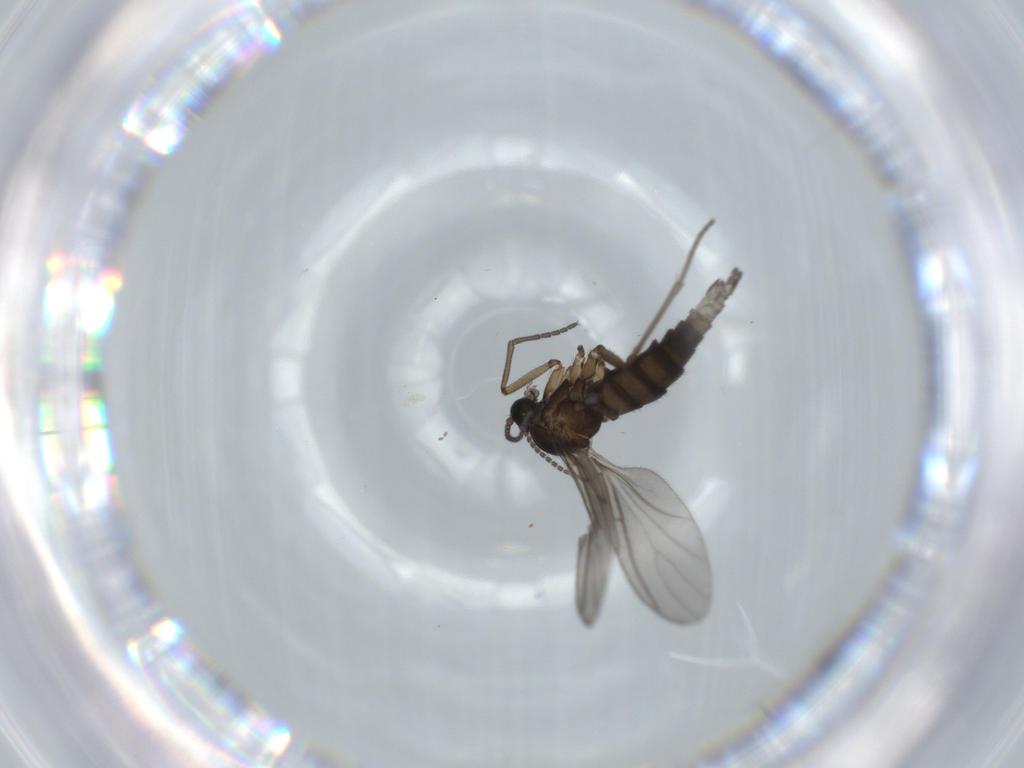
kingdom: Animalia
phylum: Arthropoda
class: Insecta
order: Diptera
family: Sciaridae
